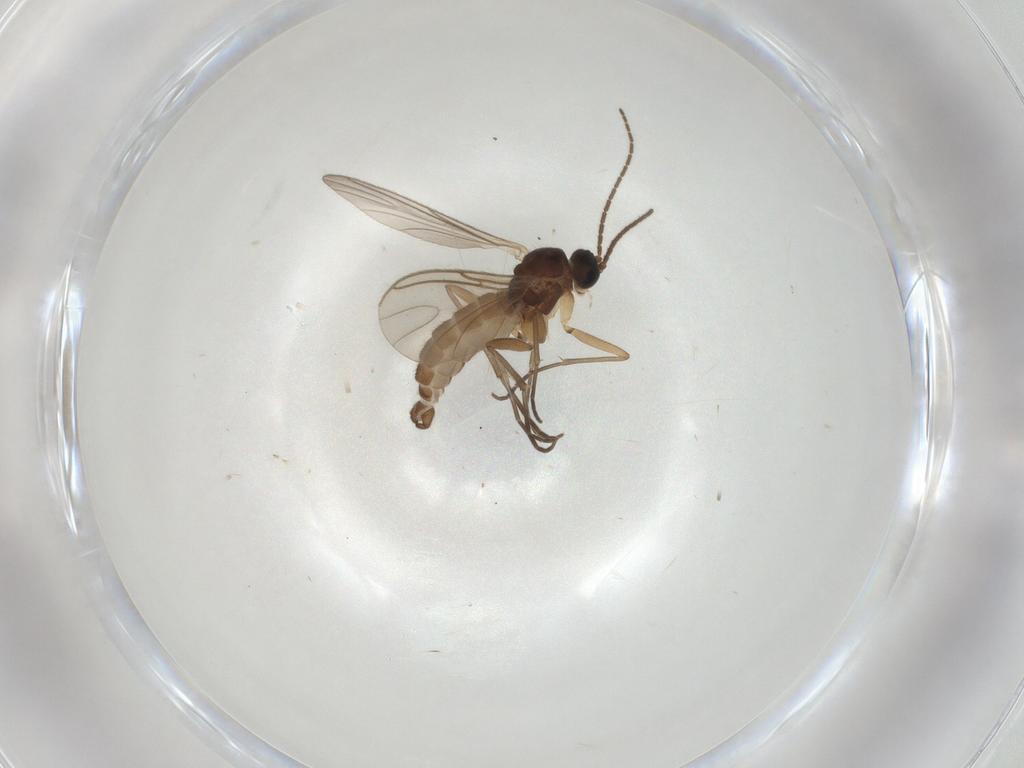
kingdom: Animalia
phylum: Arthropoda
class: Insecta
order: Diptera
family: Sciaridae
